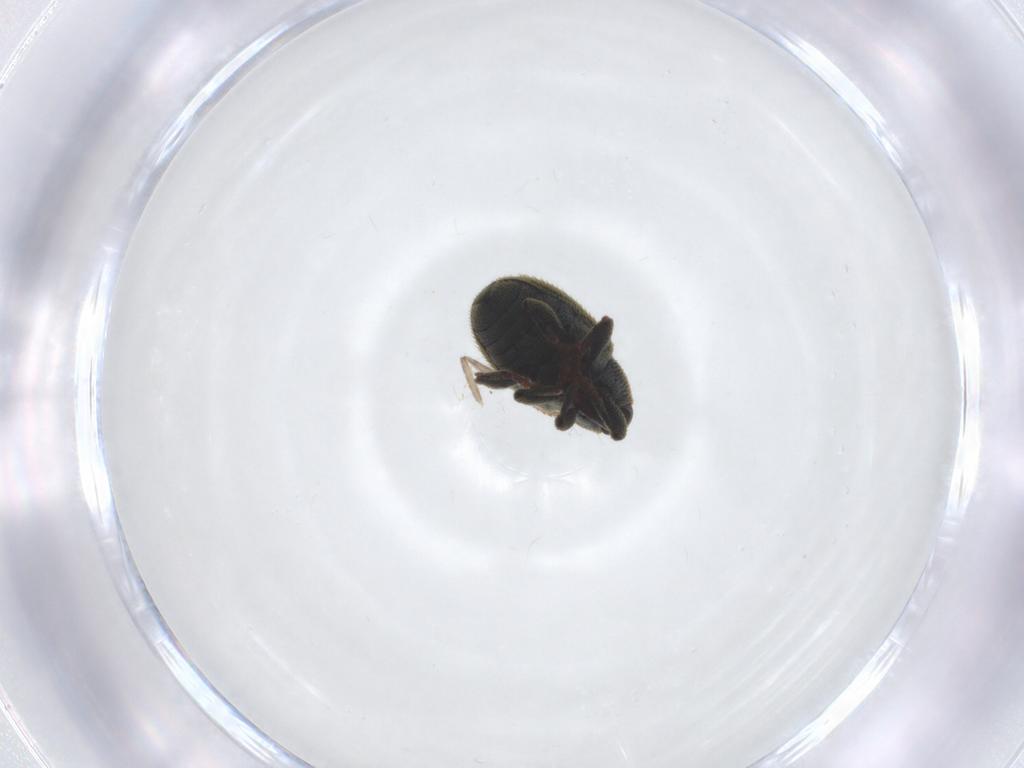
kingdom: Animalia
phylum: Arthropoda
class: Insecta
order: Coleoptera
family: Curculionidae
